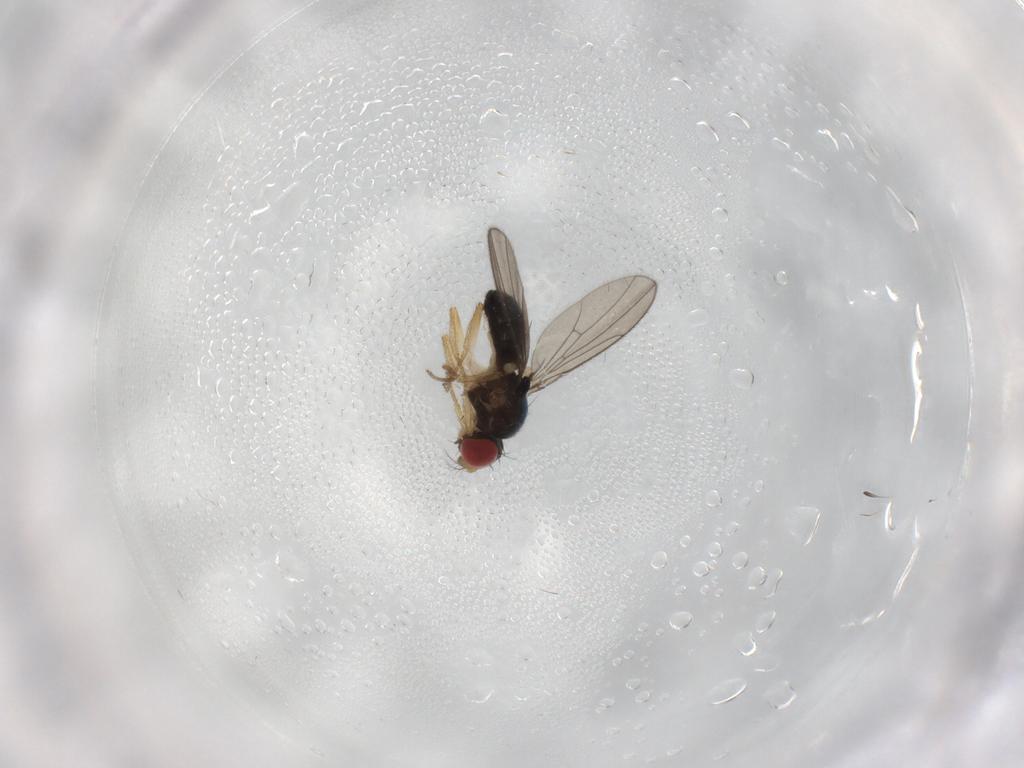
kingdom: Animalia
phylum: Arthropoda
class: Insecta
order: Diptera
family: Drosophilidae
